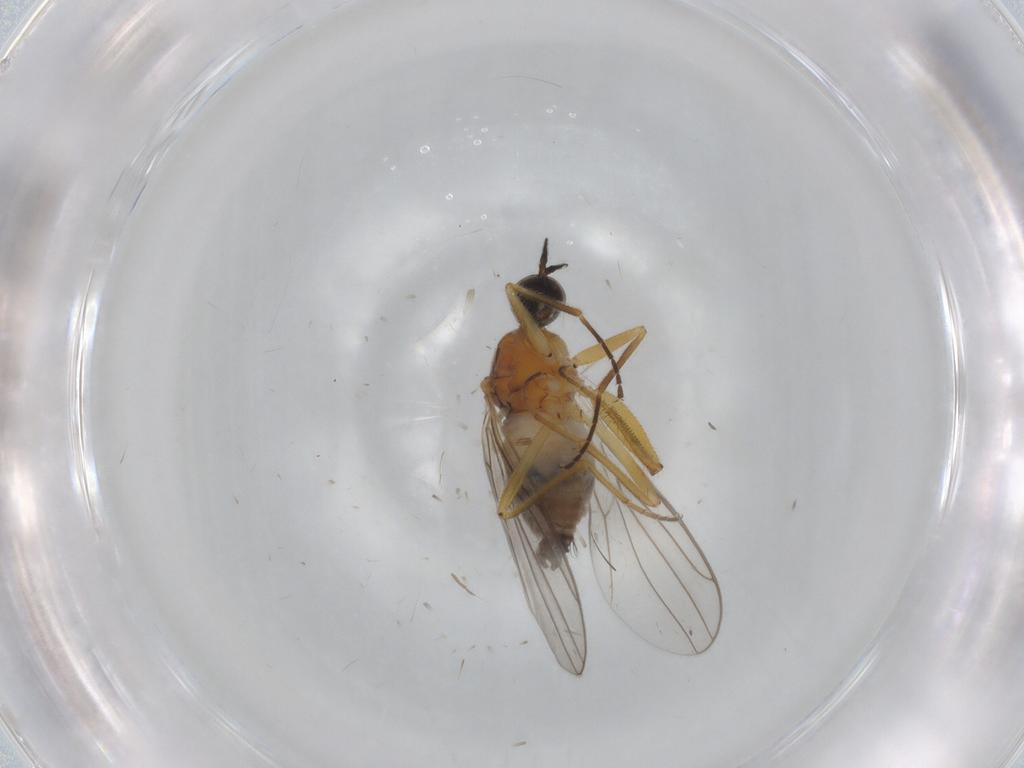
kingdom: Animalia
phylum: Arthropoda
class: Insecta
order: Diptera
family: Hybotidae
